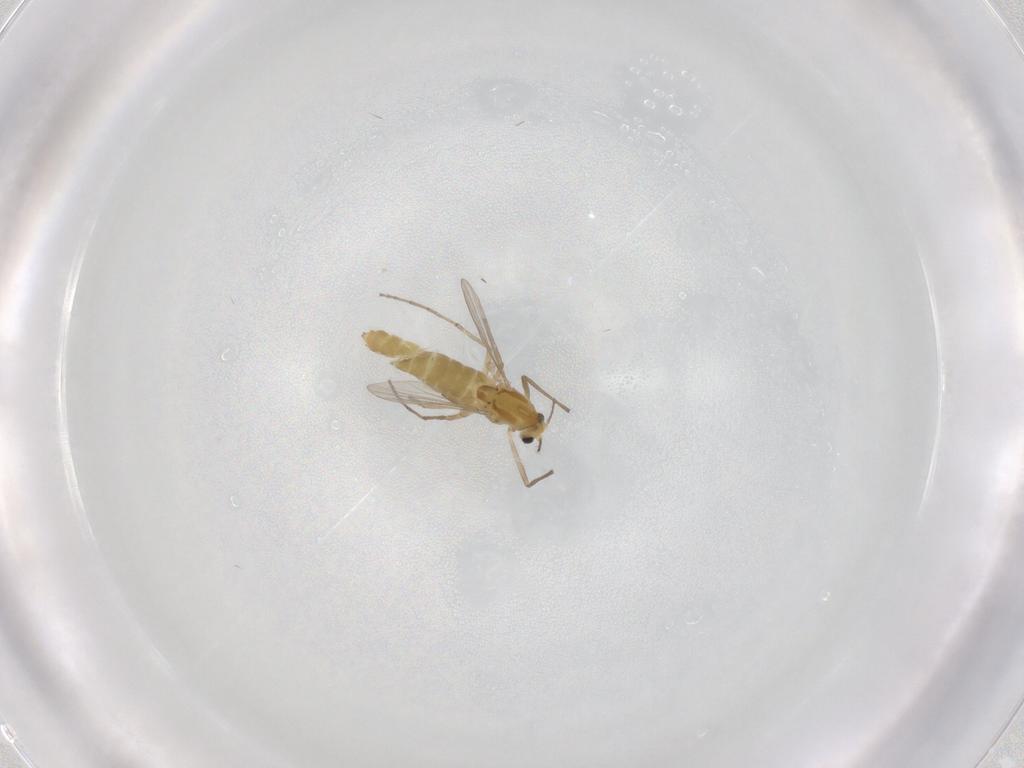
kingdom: Animalia
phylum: Arthropoda
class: Insecta
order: Diptera
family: Chironomidae
